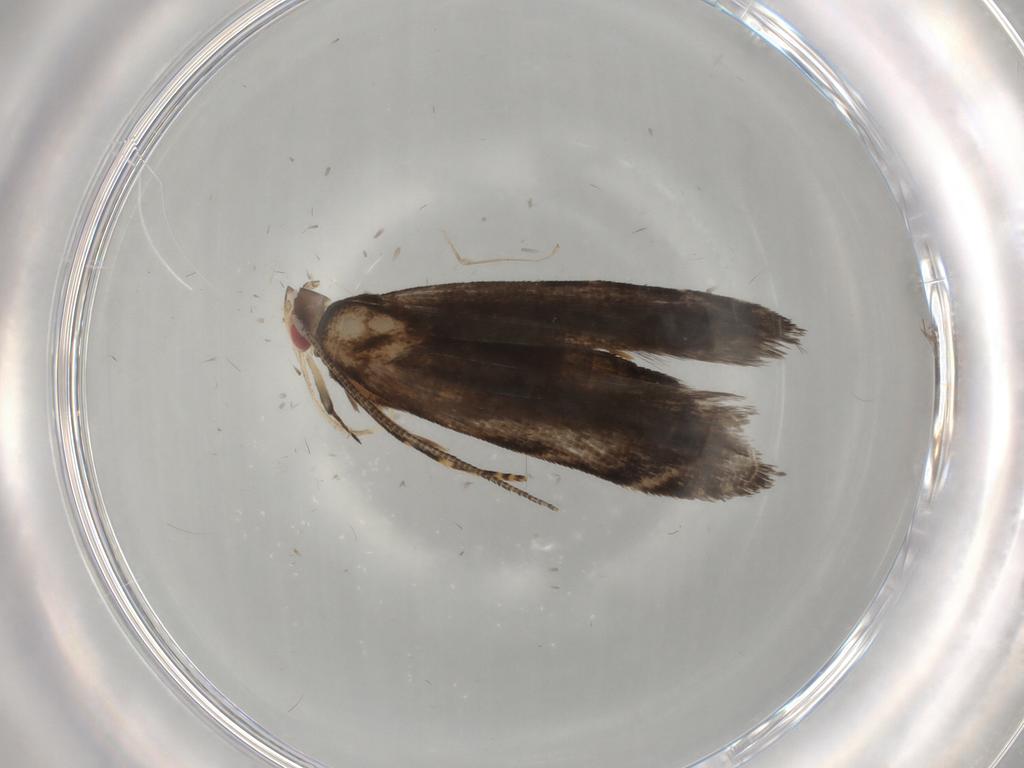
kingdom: Animalia
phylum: Arthropoda
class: Insecta
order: Lepidoptera
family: Gelechiidae
